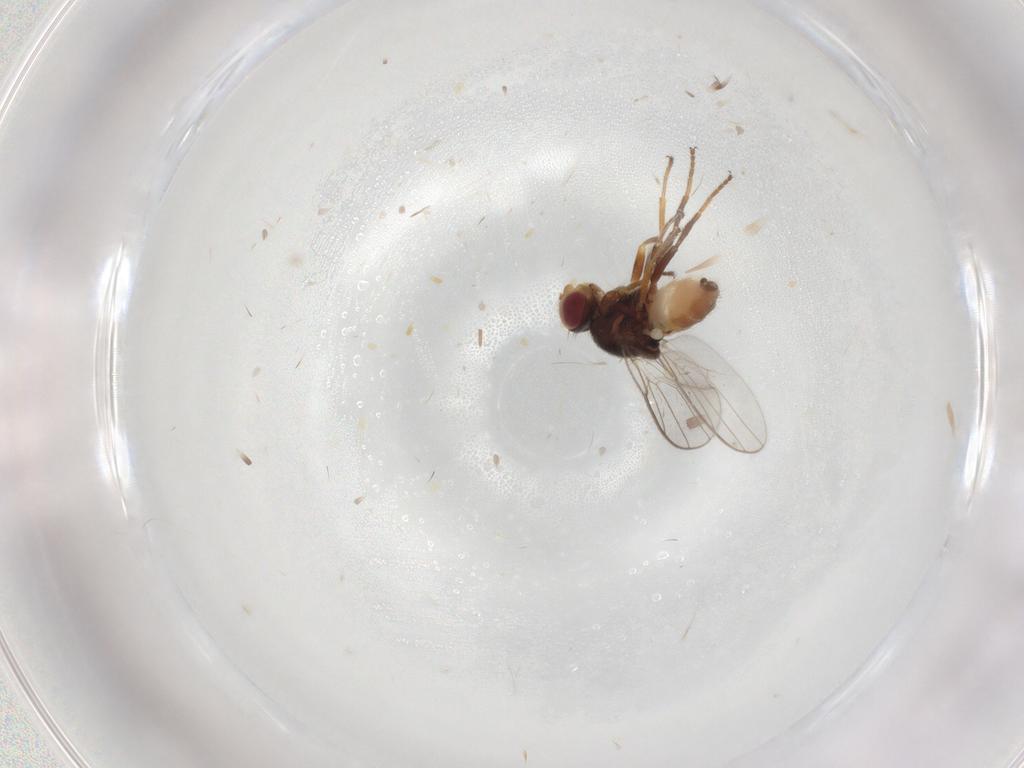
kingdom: Animalia
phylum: Arthropoda
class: Insecta
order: Diptera
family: Chloropidae
